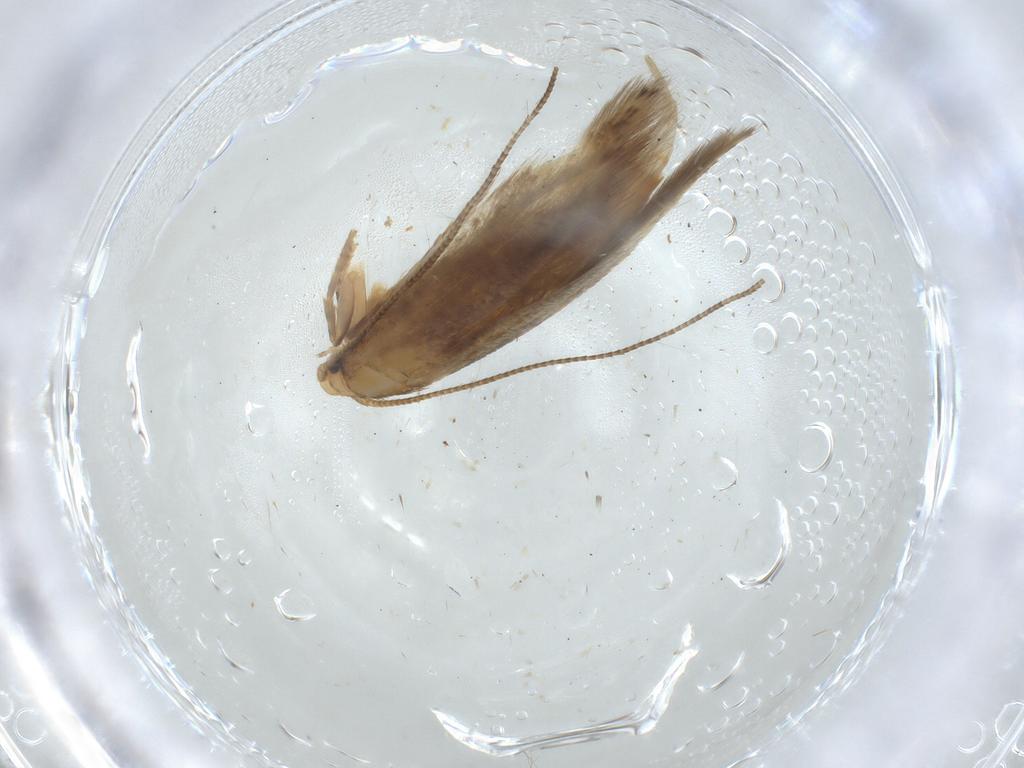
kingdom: Animalia
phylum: Arthropoda
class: Insecta
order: Lepidoptera
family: Tineidae
